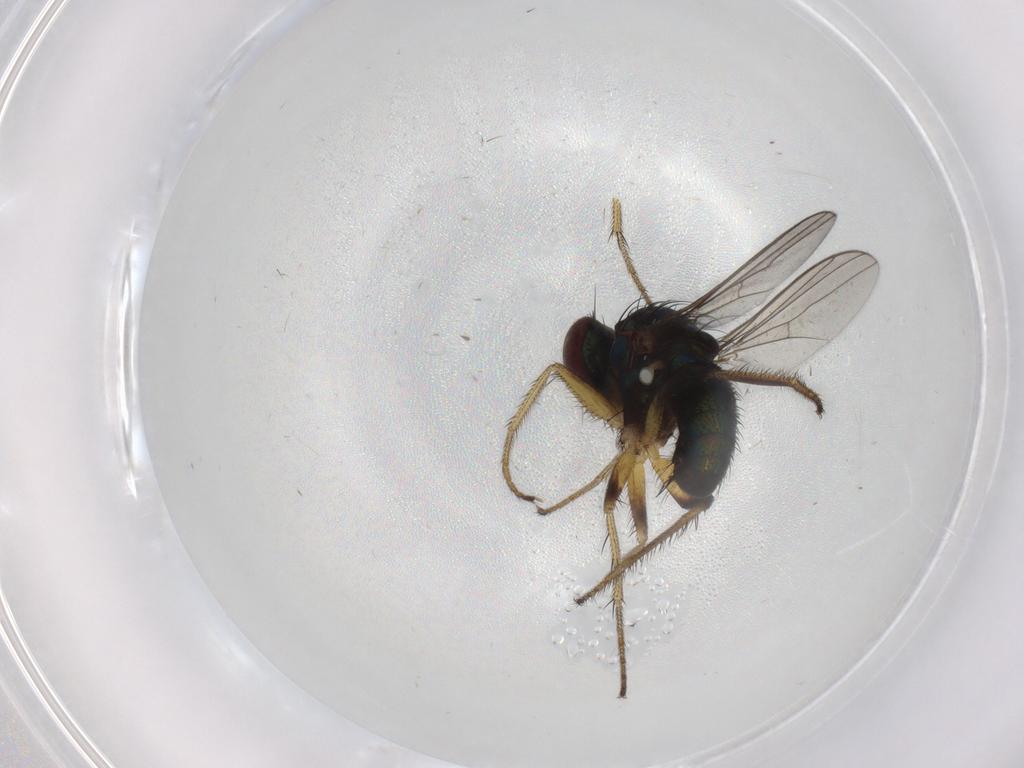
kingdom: Animalia
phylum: Arthropoda
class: Insecta
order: Diptera
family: Dolichopodidae
